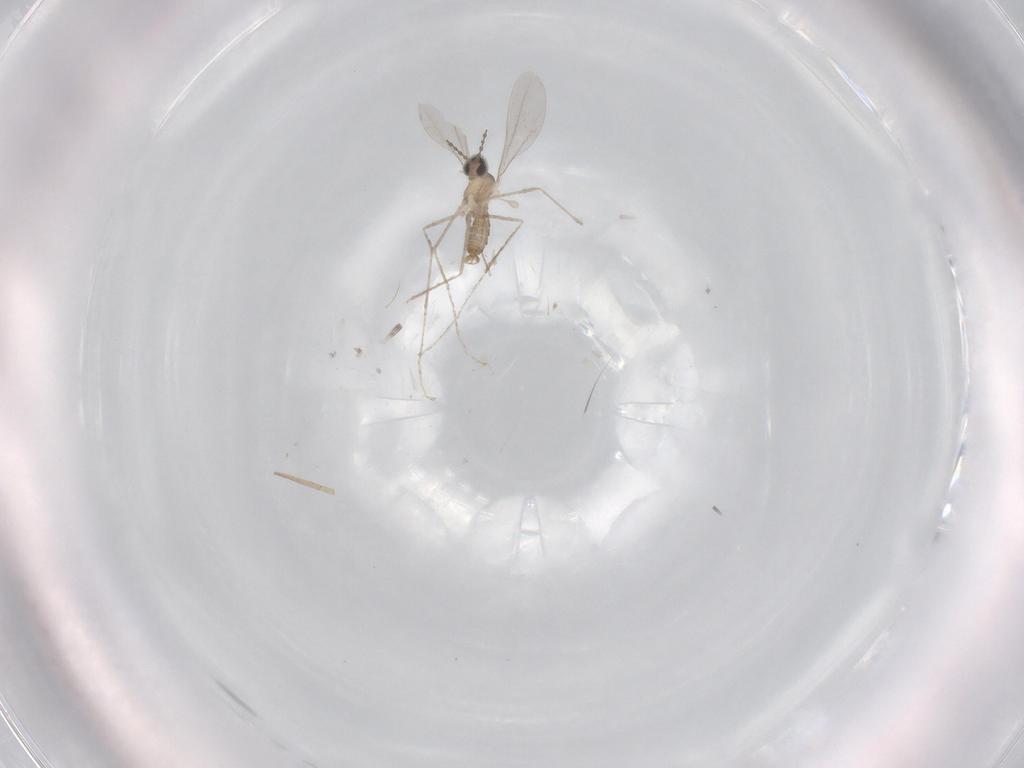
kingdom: Animalia
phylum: Arthropoda
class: Insecta
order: Diptera
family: Cecidomyiidae
